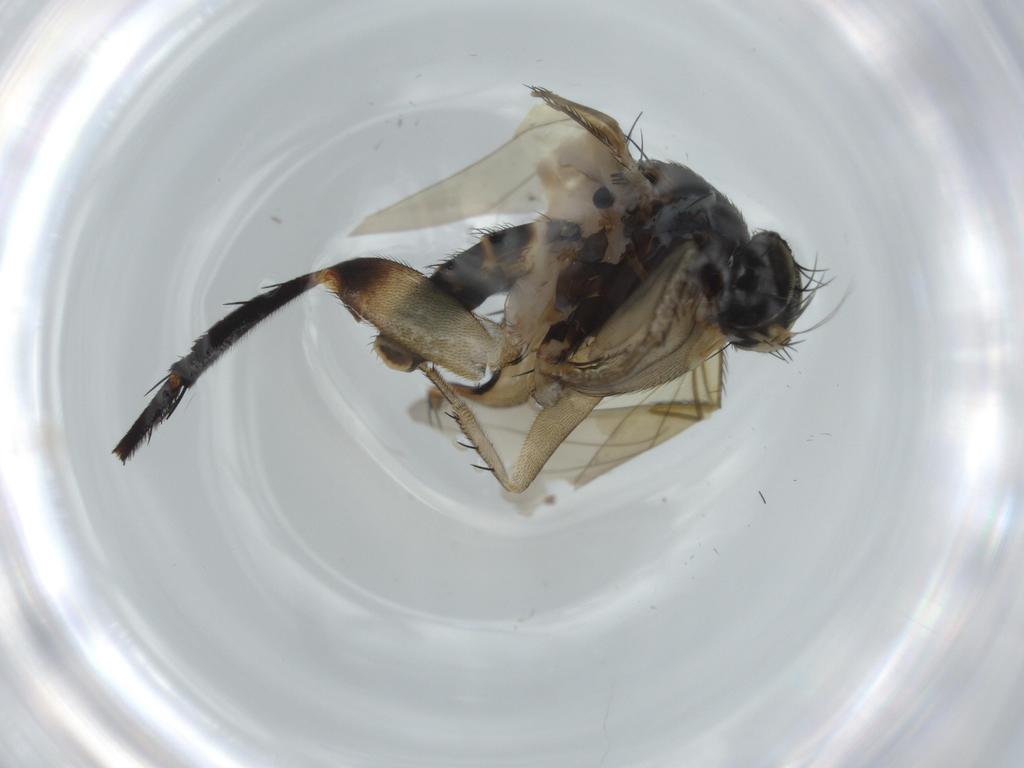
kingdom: Animalia
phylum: Arthropoda
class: Insecta
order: Diptera
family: Phoridae
